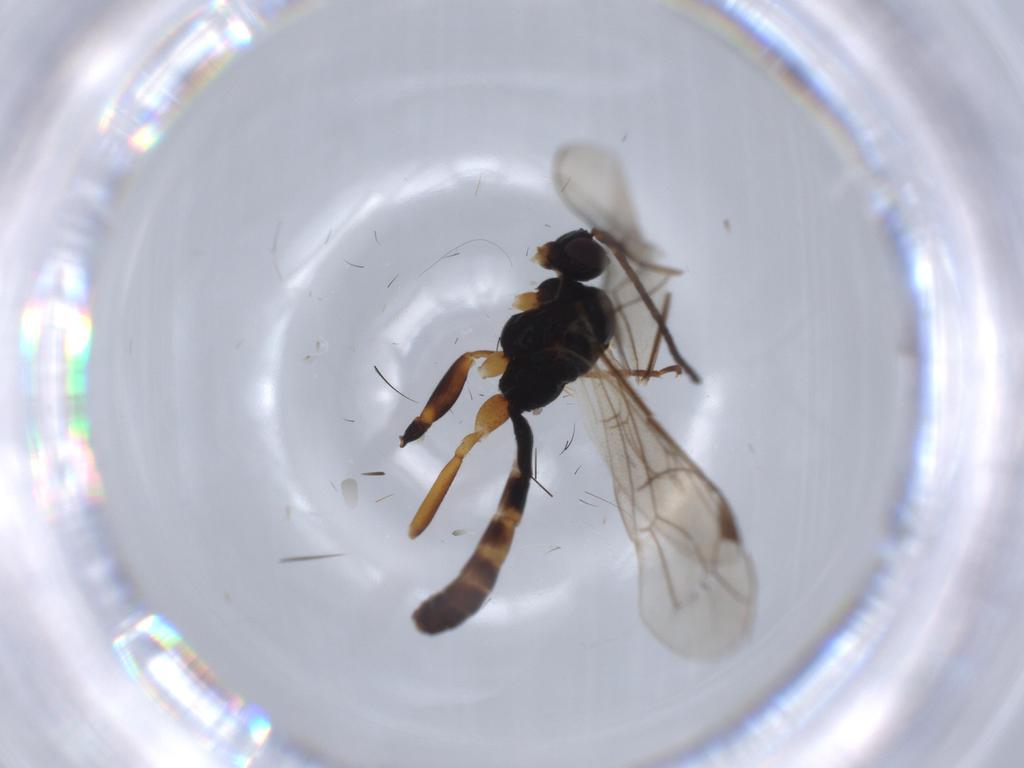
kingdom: Animalia
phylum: Arthropoda
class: Insecta
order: Hymenoptera
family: Ichneumonidae
